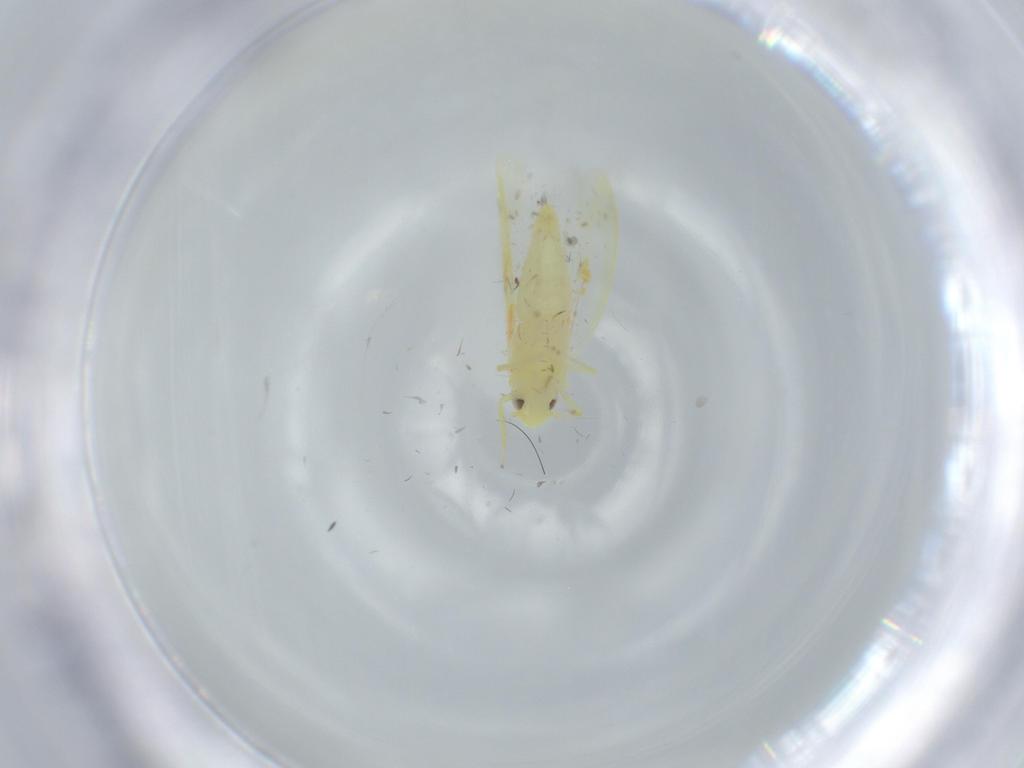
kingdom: Animalia
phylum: Arthropoda
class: Insecta
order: Hemiptera
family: Cicadellidae
